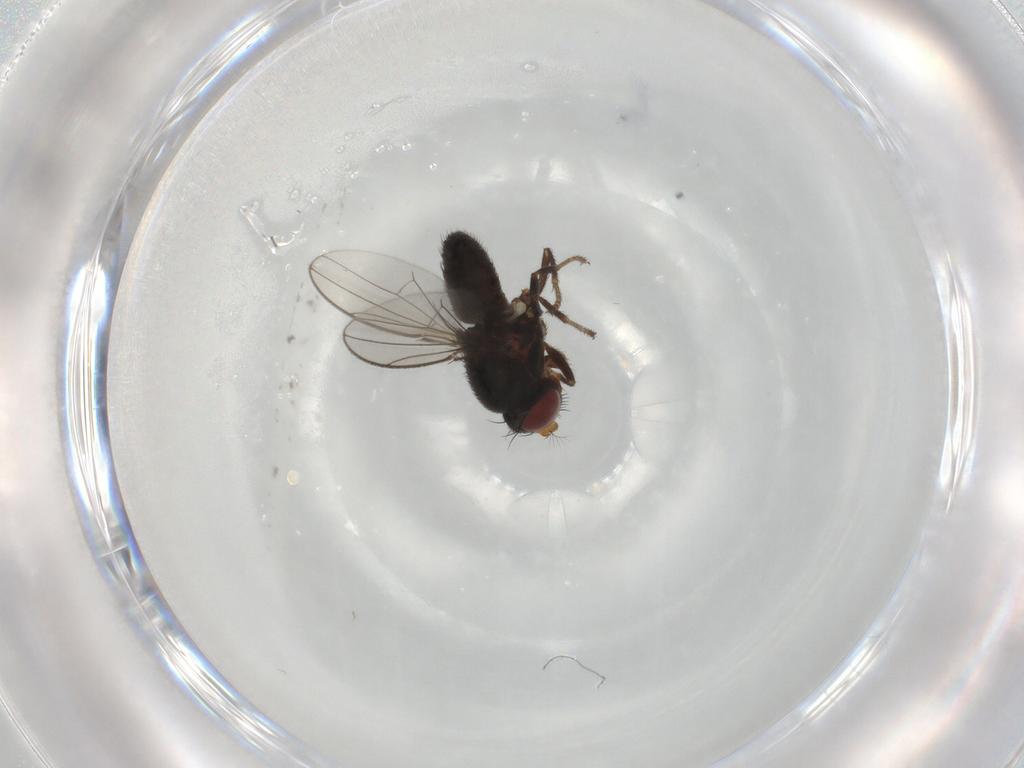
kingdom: Animalia
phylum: Arthropoda
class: Insecta
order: Diptera
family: Ephydridae
